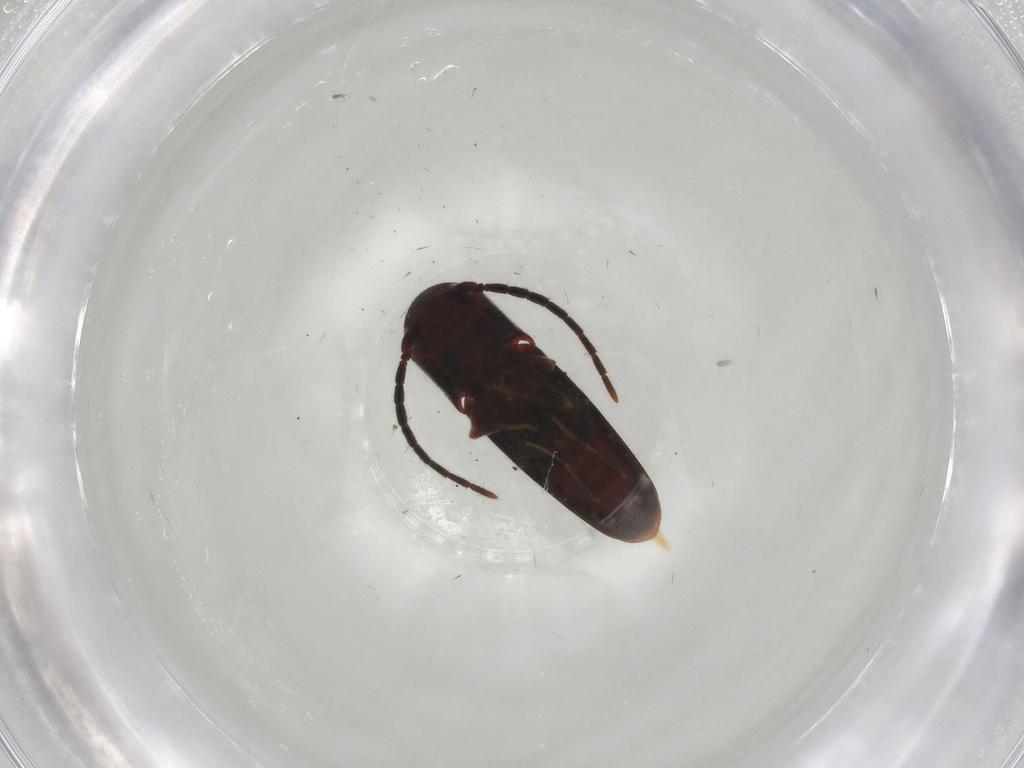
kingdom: Animalia
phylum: Arthropoda
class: Insecta
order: Coleoptera
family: Eucnemidae
